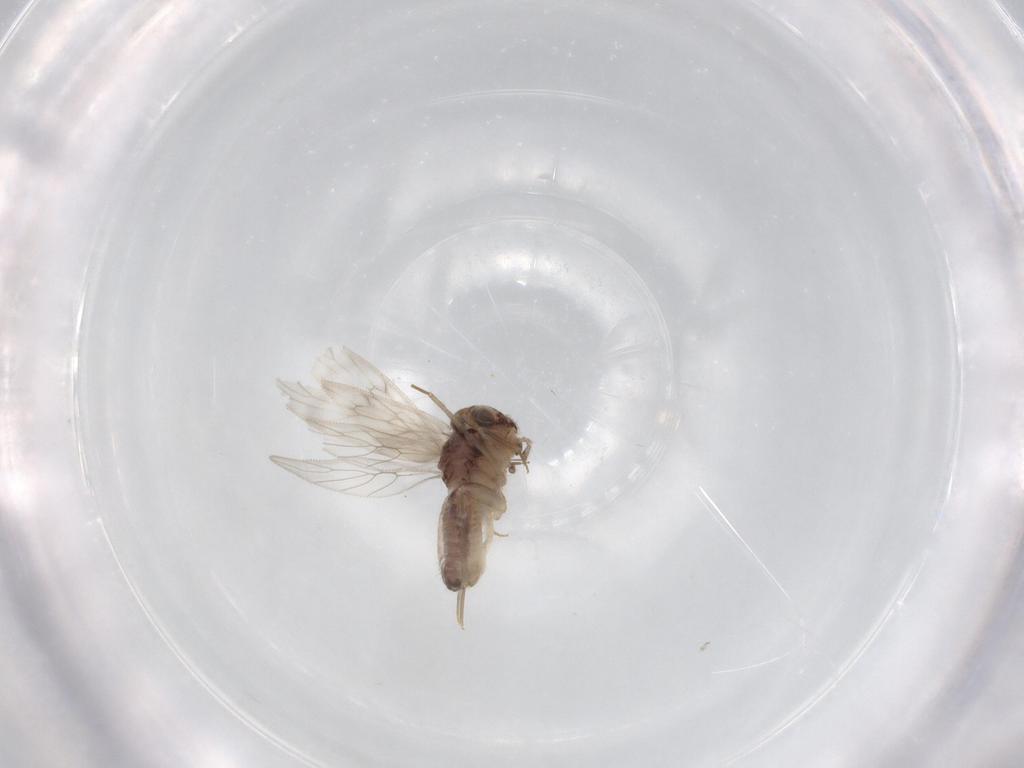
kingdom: Animalia
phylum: Arthropoda
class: Insecta
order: Psocodea
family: Lepidopsocidae
